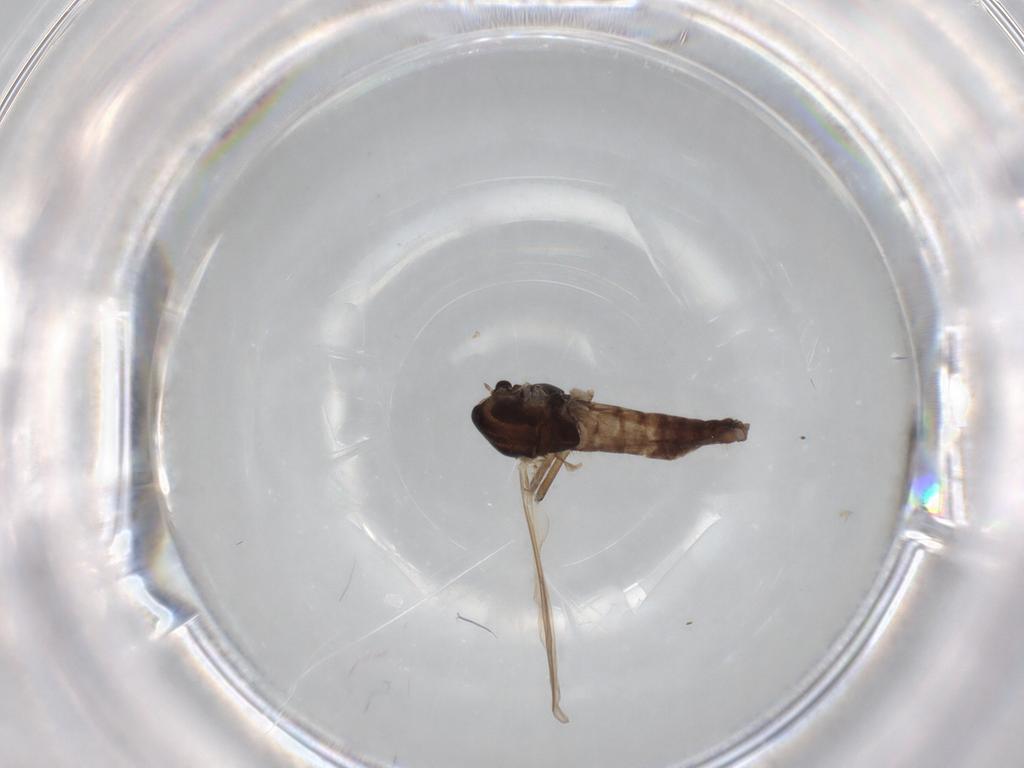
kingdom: Animalia
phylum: Arthropoda
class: Insecta
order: Diptera
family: Chironomidae
